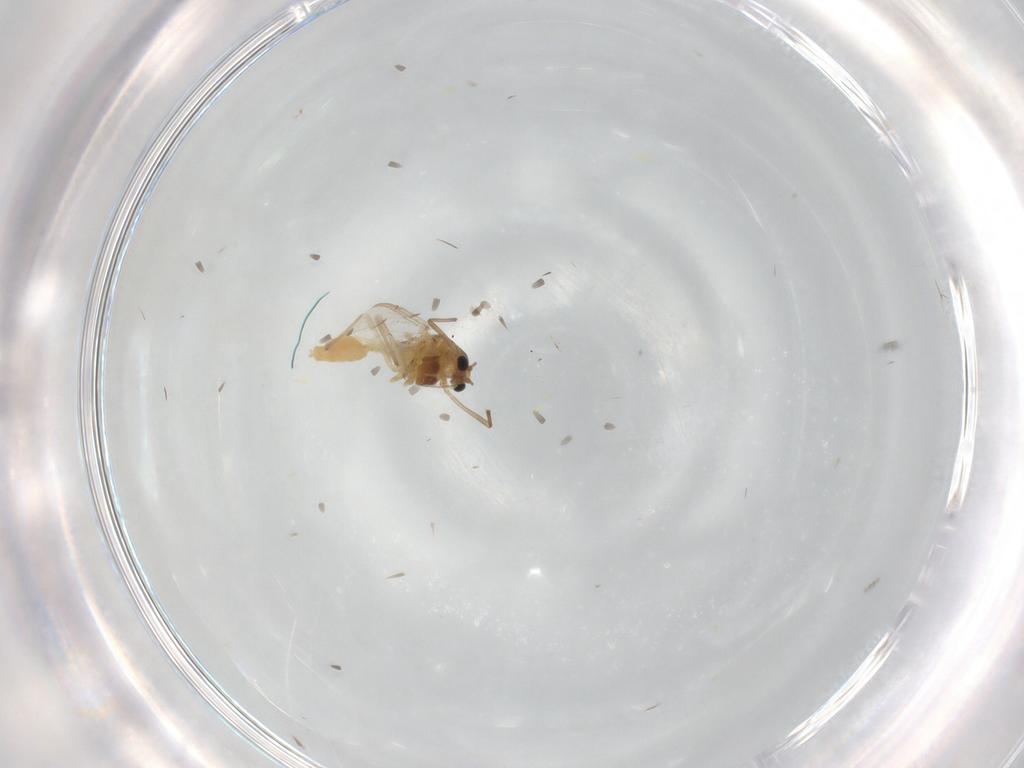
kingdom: Animalia
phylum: Arthropoda
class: Insecta
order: Diptera
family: Chironomidae
